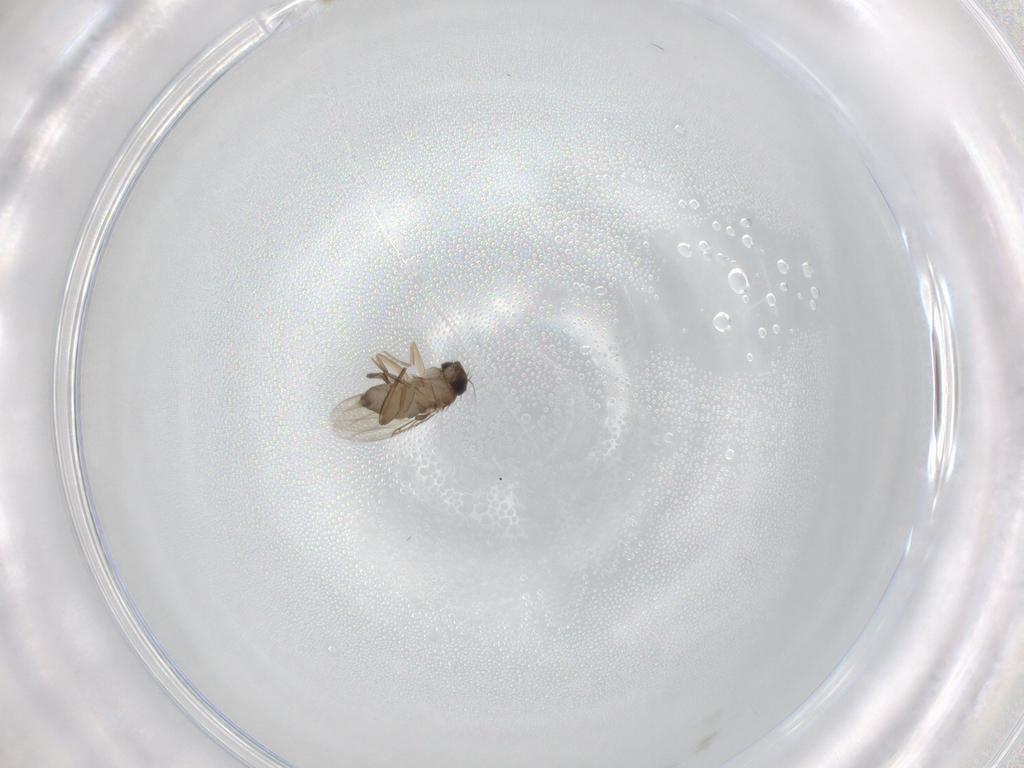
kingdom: Animalia
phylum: Arthropoda
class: Insecta
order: Diptera
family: Phoridae
